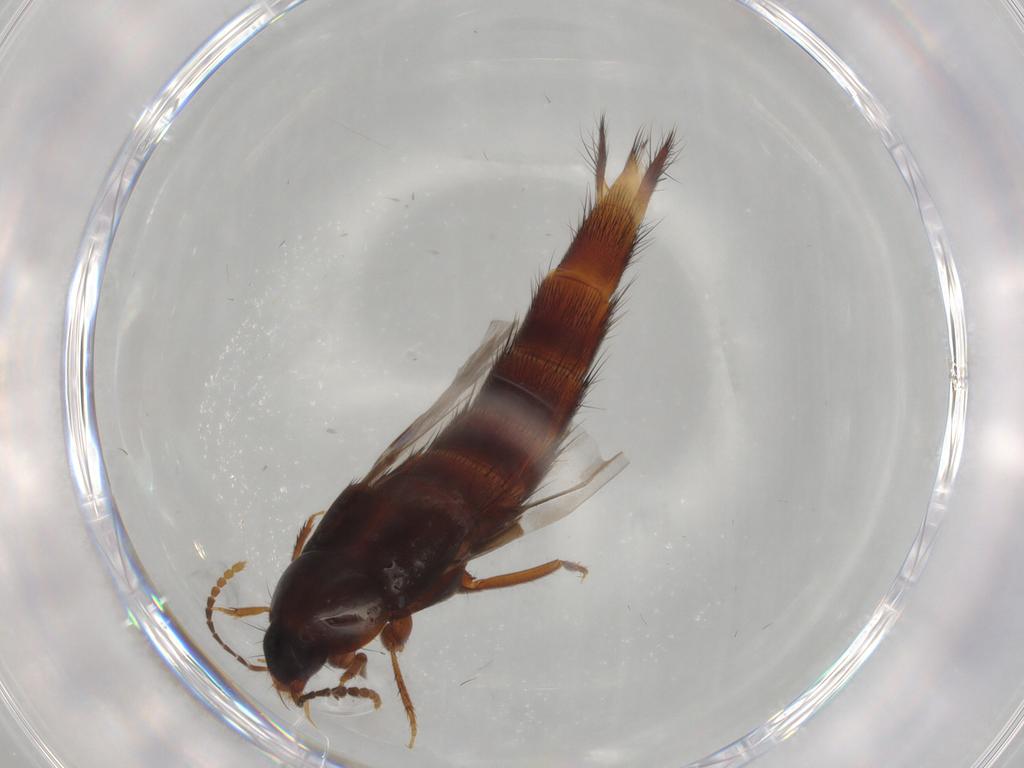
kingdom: Animalia
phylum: Arthropoda
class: Insecta
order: Coleoptera
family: Staphylinidae
